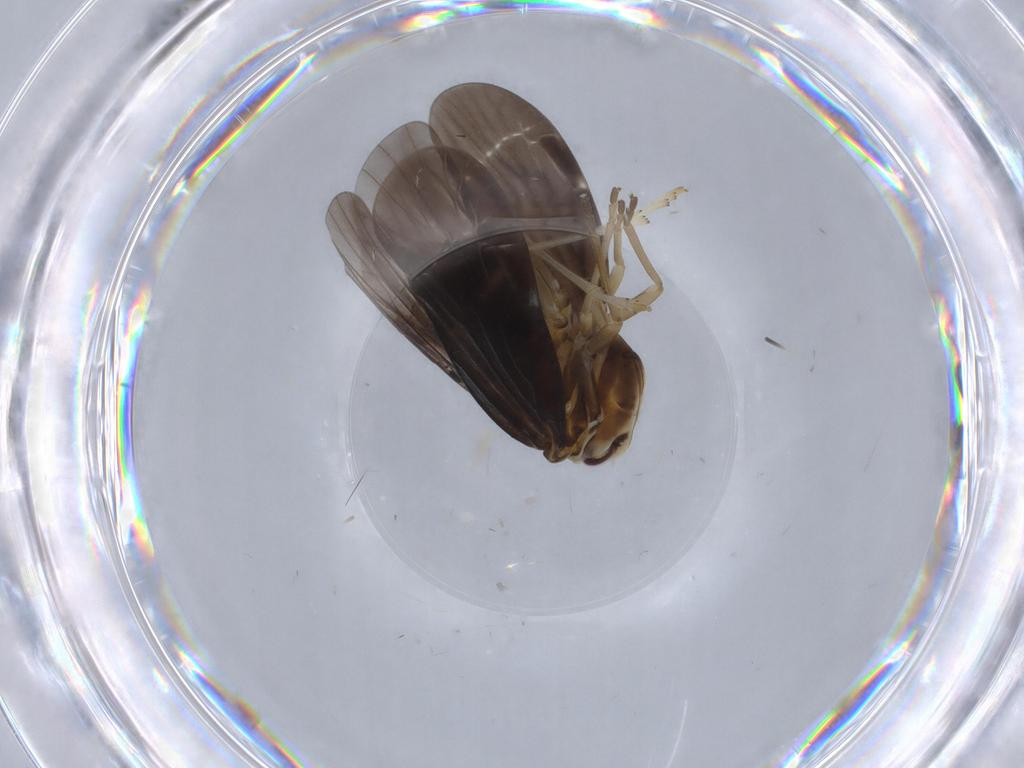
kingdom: Animalia
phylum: Arthropoda
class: Insecta
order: Hemiptera
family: Derbidae
